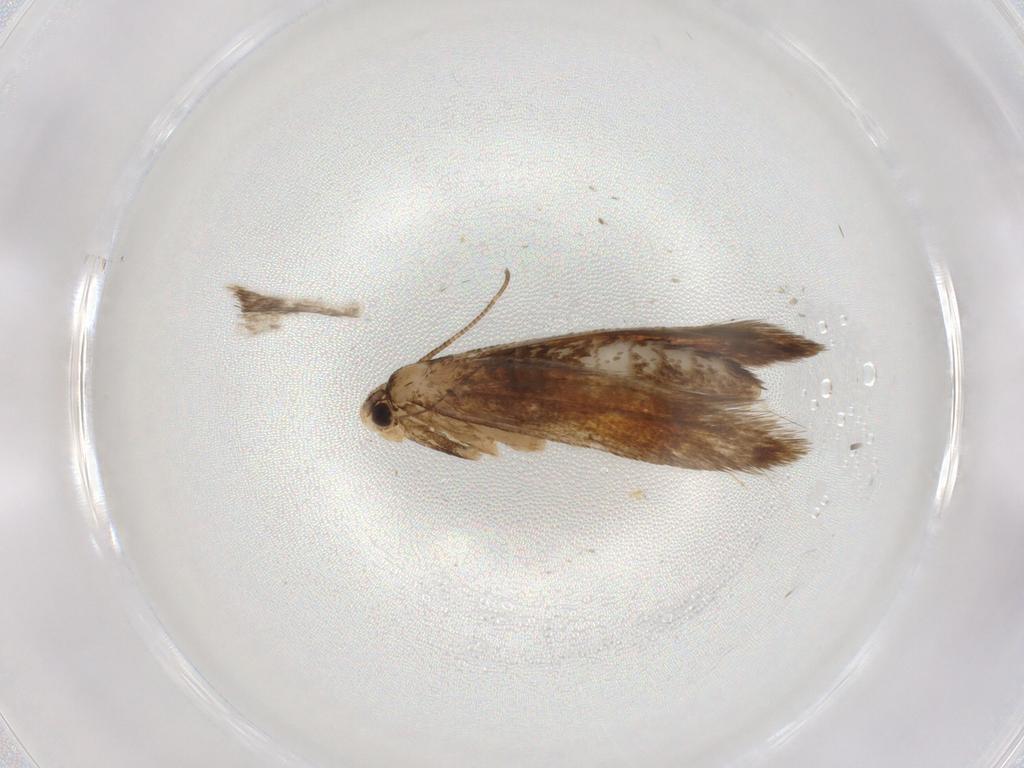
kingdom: Animalia
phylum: Arthropoda
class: Insecta
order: Lepidoptera
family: Tineidae
